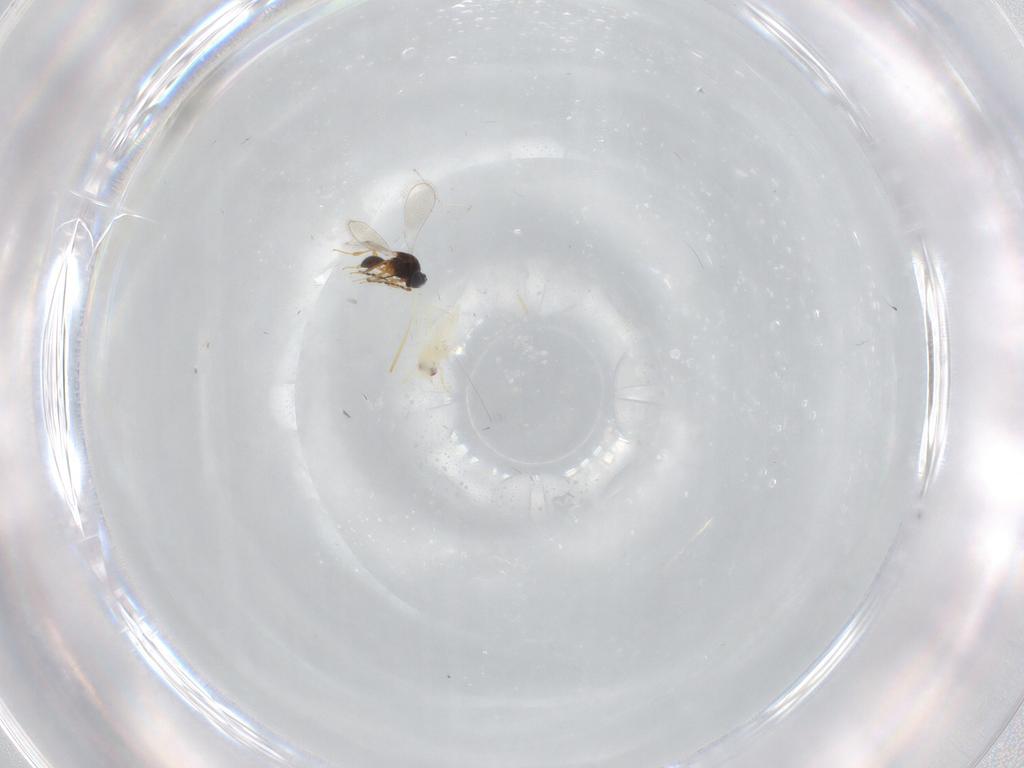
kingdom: Animalia
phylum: Arthropoda
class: Insecta
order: Hymenoptera
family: Platygastridae
